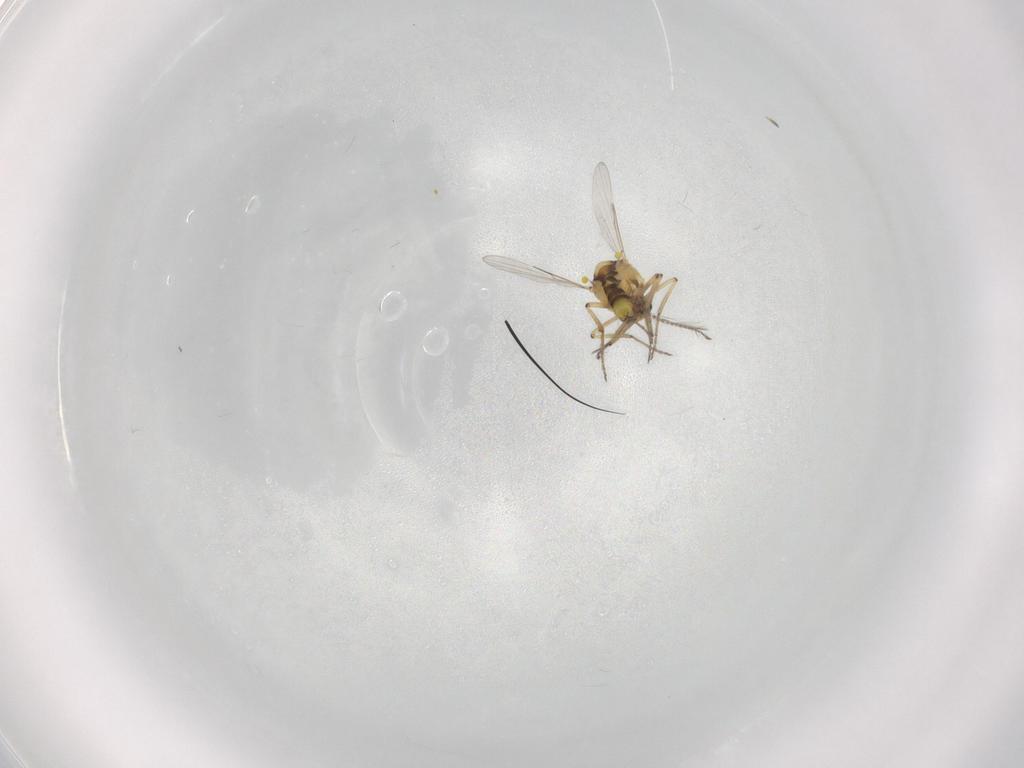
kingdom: Animalia
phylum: Arthropoda
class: Insecta
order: Diptera
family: Ceratopogonidae
